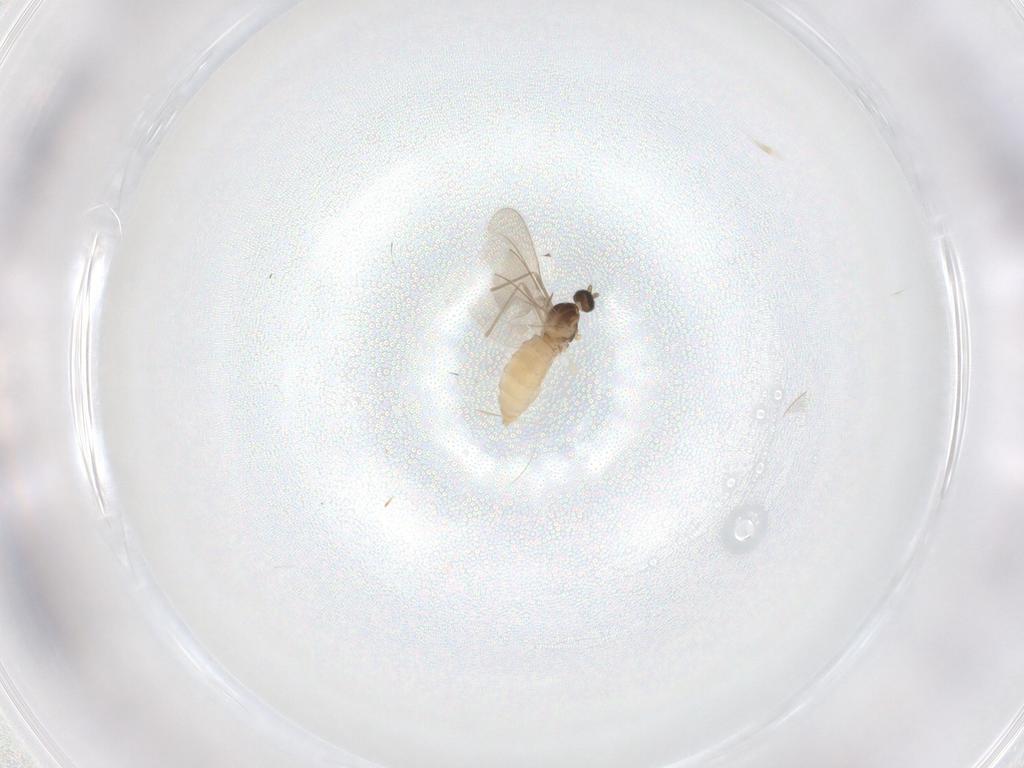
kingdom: Animalia
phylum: Arthropoda
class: Insecta
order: Diptera
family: Cecidomyiidae
